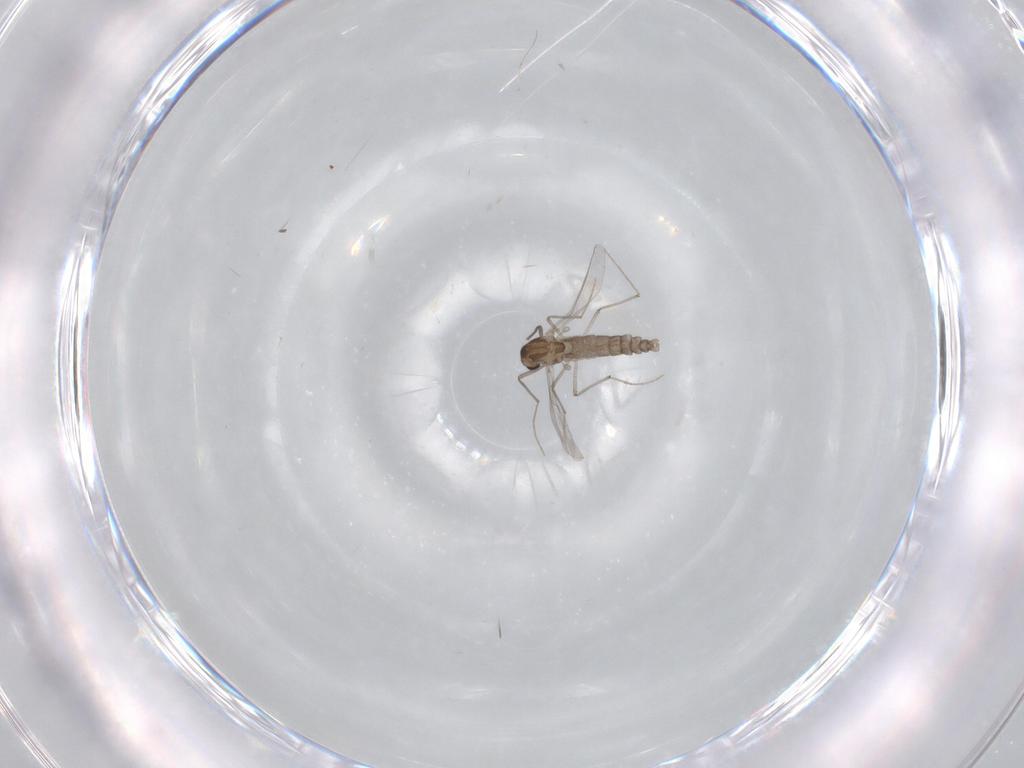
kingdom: Animalia
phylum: Arthropoda
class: Insecta
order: Diptera
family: Chironomidae
